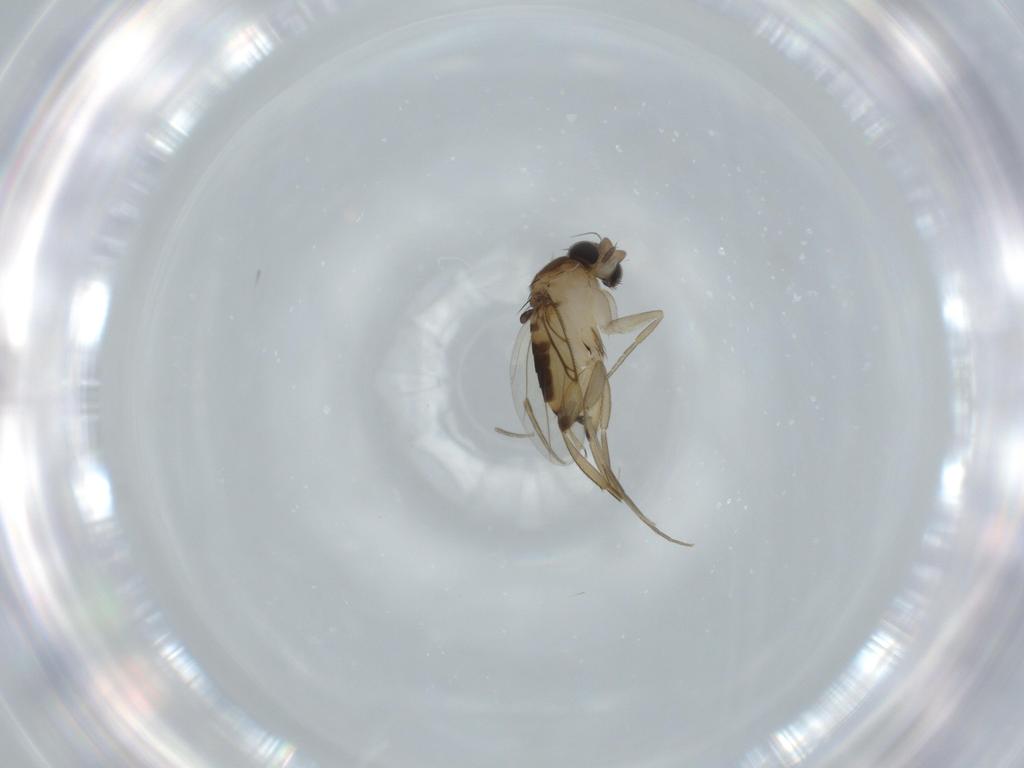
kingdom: Animalia
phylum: Arthropoda
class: Insecta
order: Diptera
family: Phoridae
